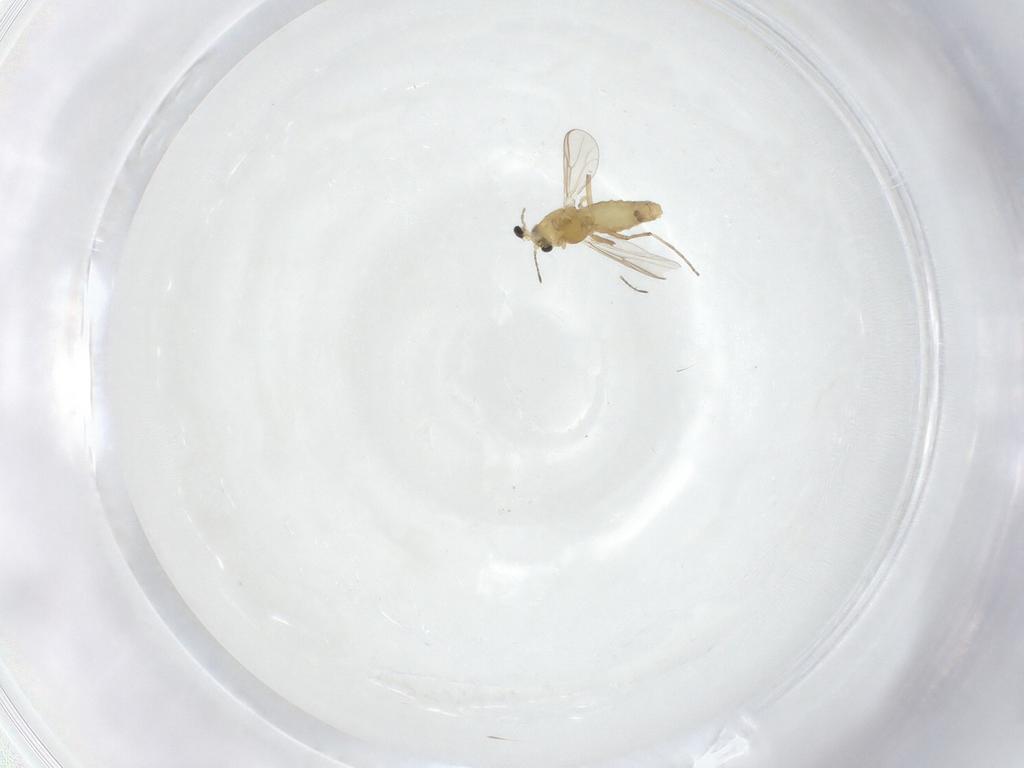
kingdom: Animalia
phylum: Arthropoda
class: Insecta
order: Diptera
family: Chironomidae
